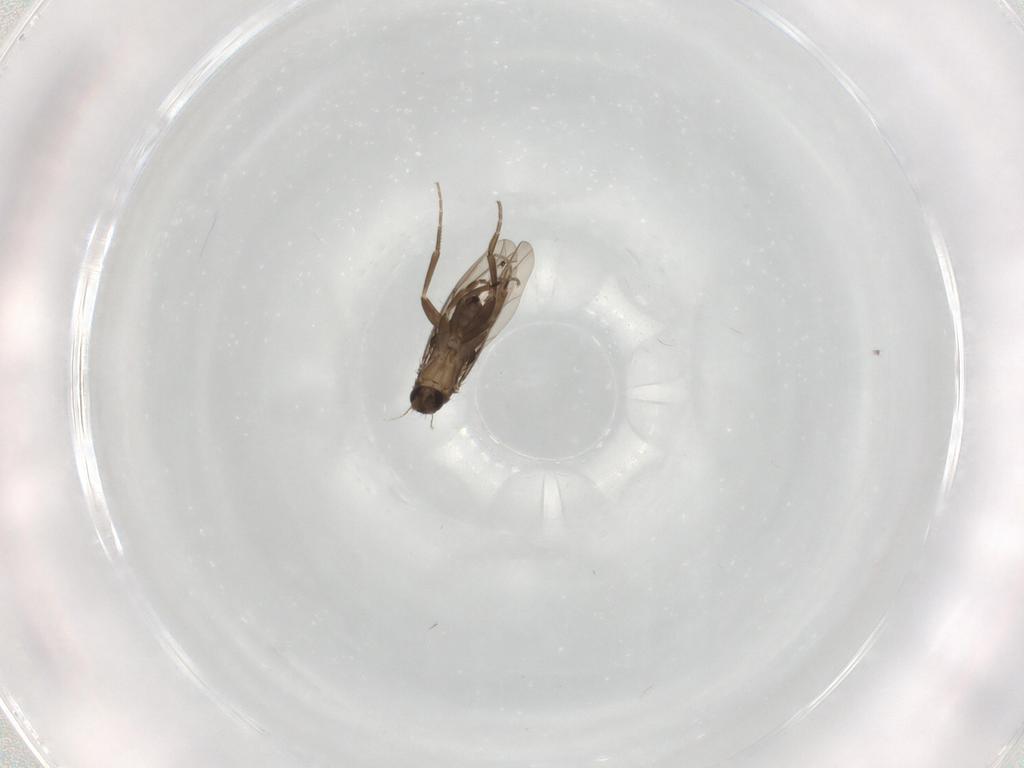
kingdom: Animalia
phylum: Arthropoda
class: Insecta
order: Diptera
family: Phoridae
